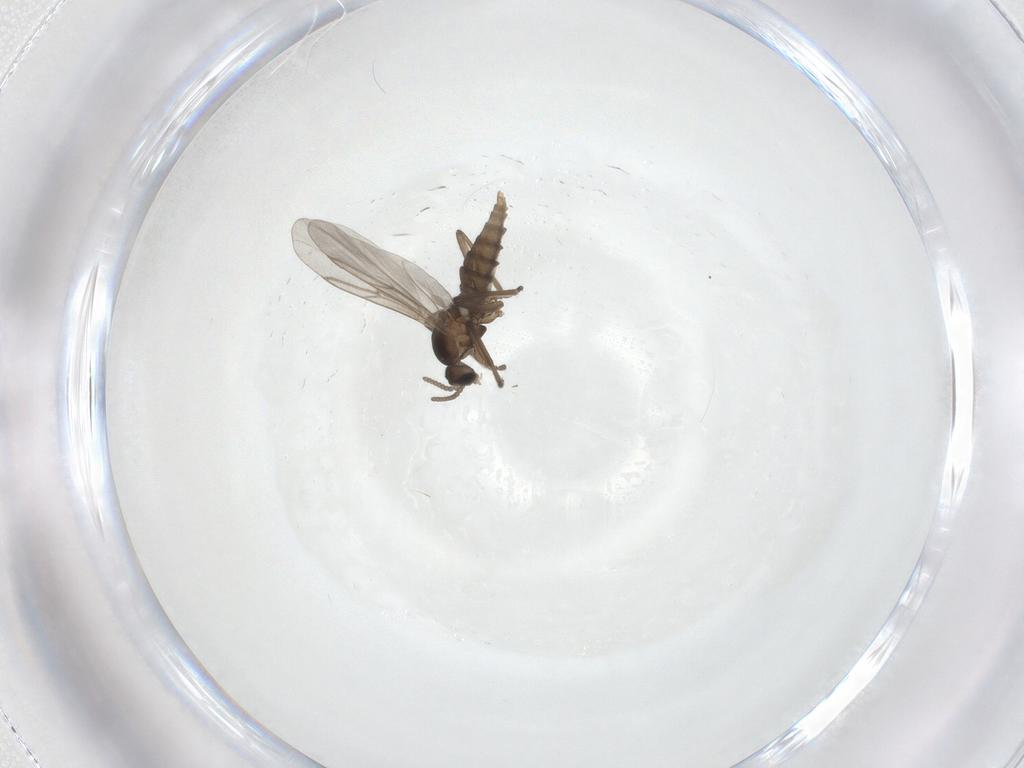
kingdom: Animalia
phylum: Arthropoda
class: Insecta
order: Diptera
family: Cecidomyiidae
